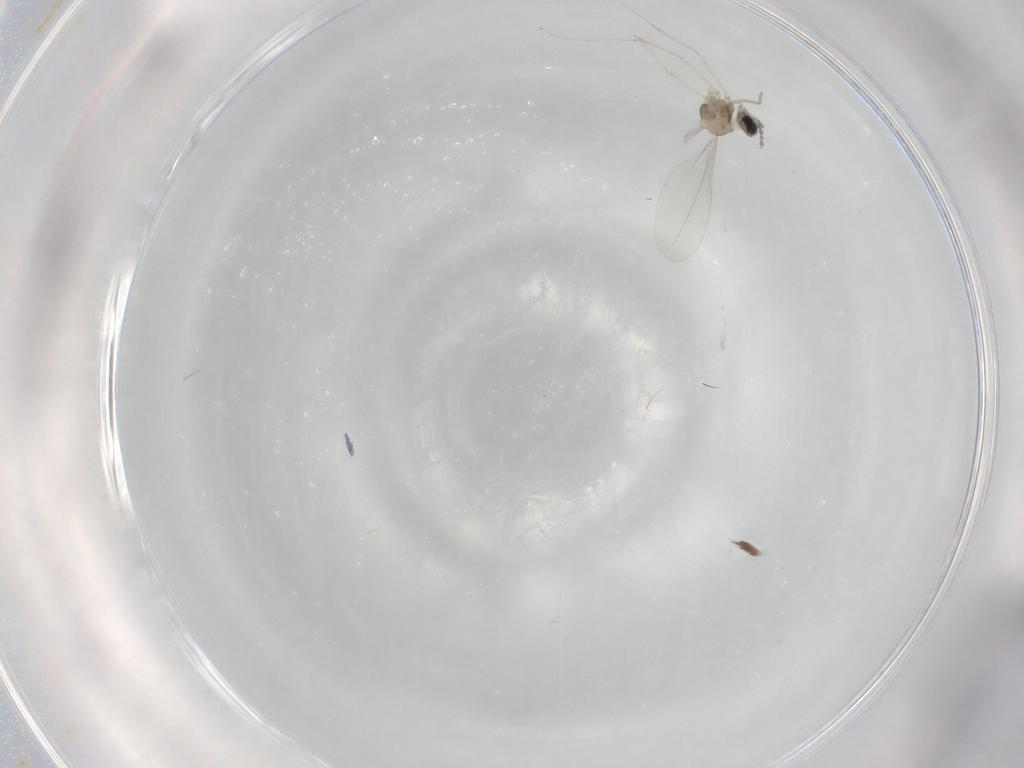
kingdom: Animalia
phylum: Arthropoda
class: Insecta
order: Diptera
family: Cecidomyiidae
